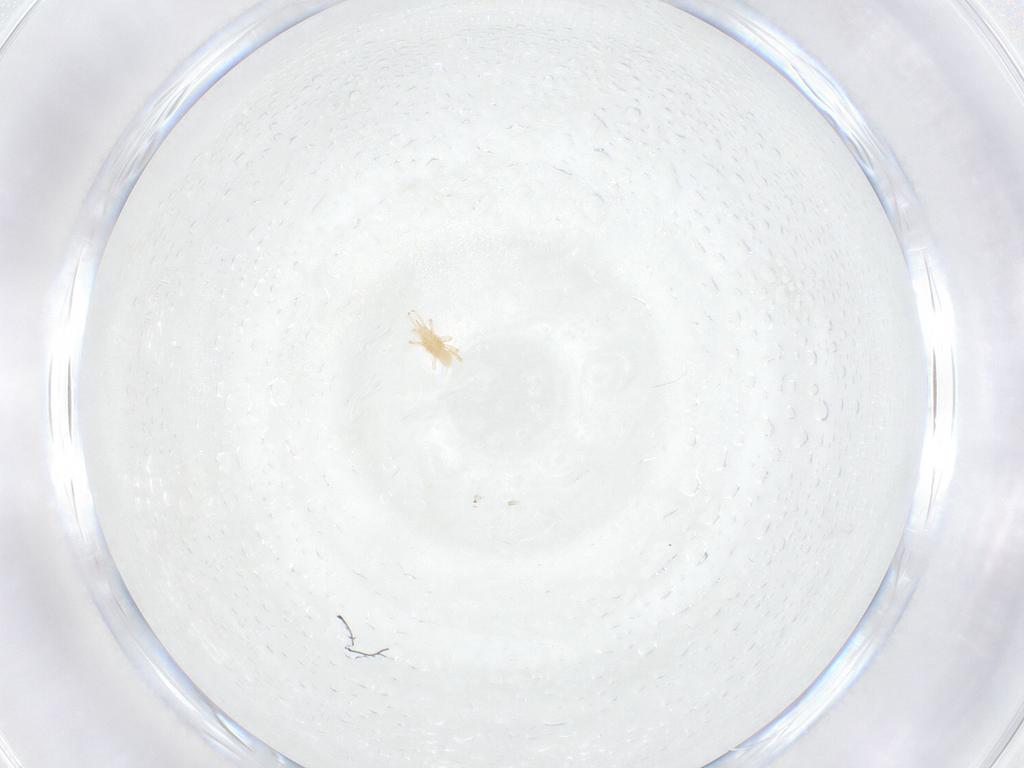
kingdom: Animalia
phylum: Arthropoda
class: Arachnida
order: Trombidiformes
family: Cunaxidae
